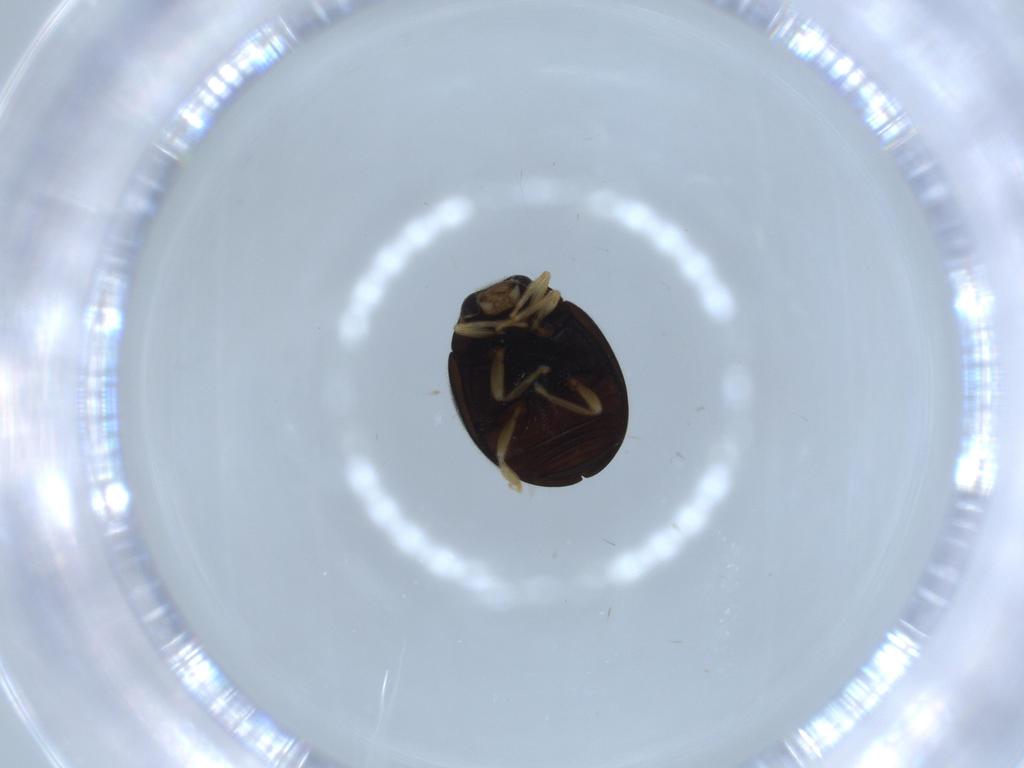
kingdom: Animalia
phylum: Arthropoda
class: Insecta
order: Coleoptera
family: Coccinellidae
